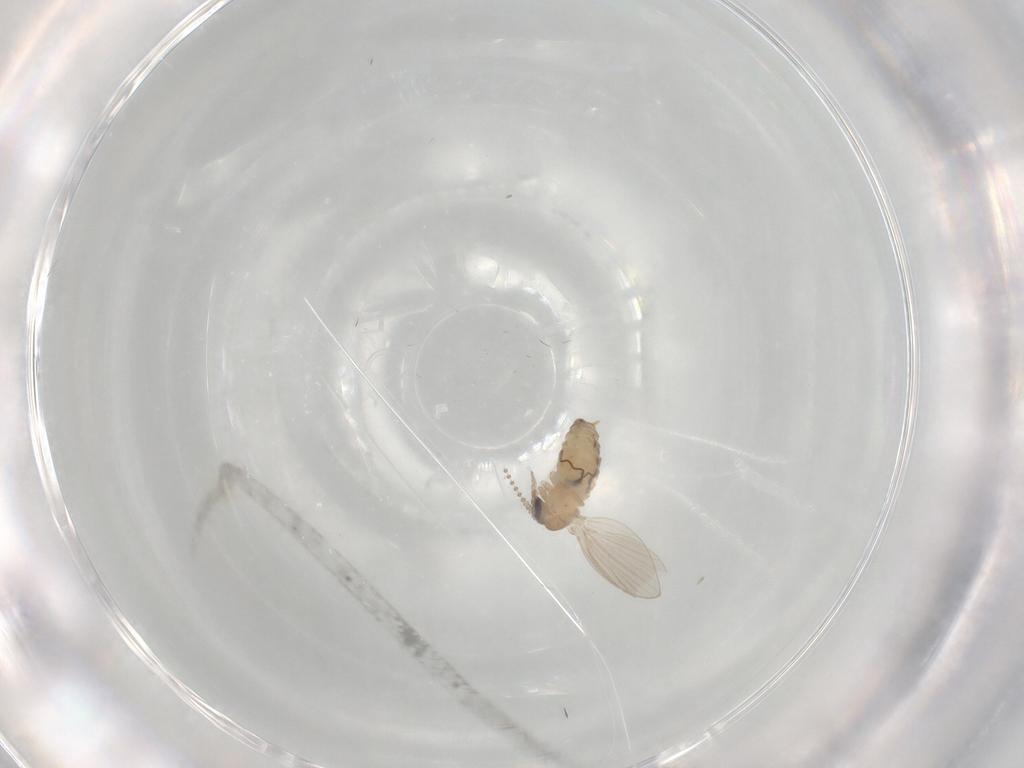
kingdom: Animalia
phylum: Arthropoda
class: Insecta
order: Diptera
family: Psychodidae
